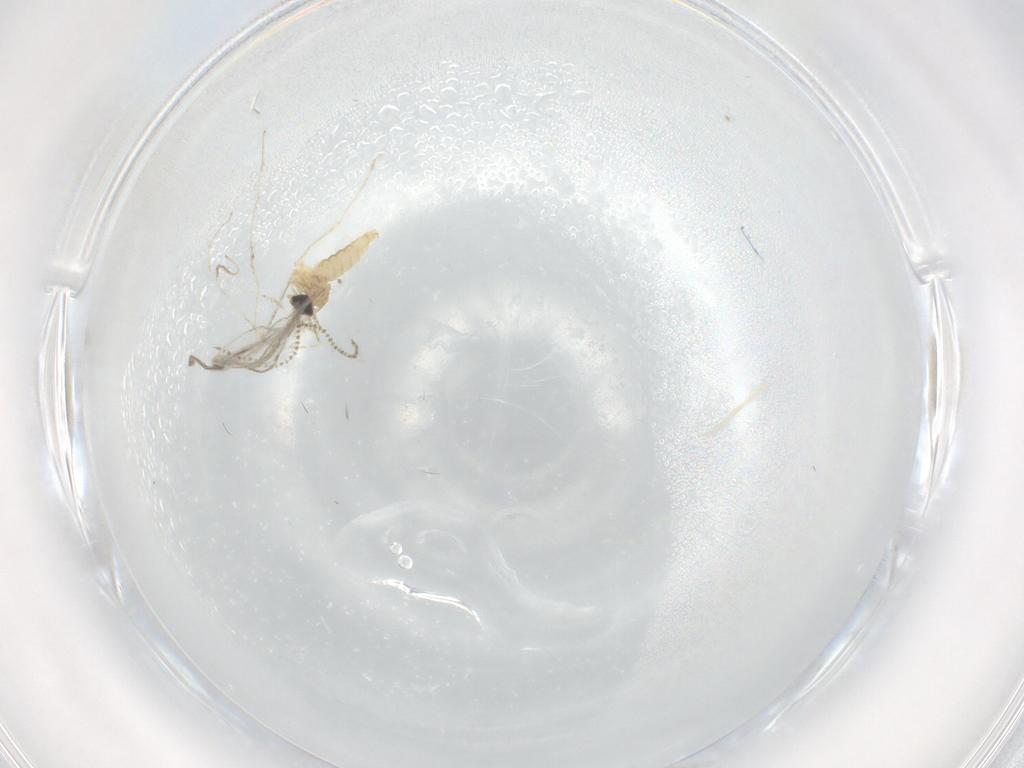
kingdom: Animalia
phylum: Arthropoda
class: Insecta
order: Diptera
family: Cecidomyiidae
